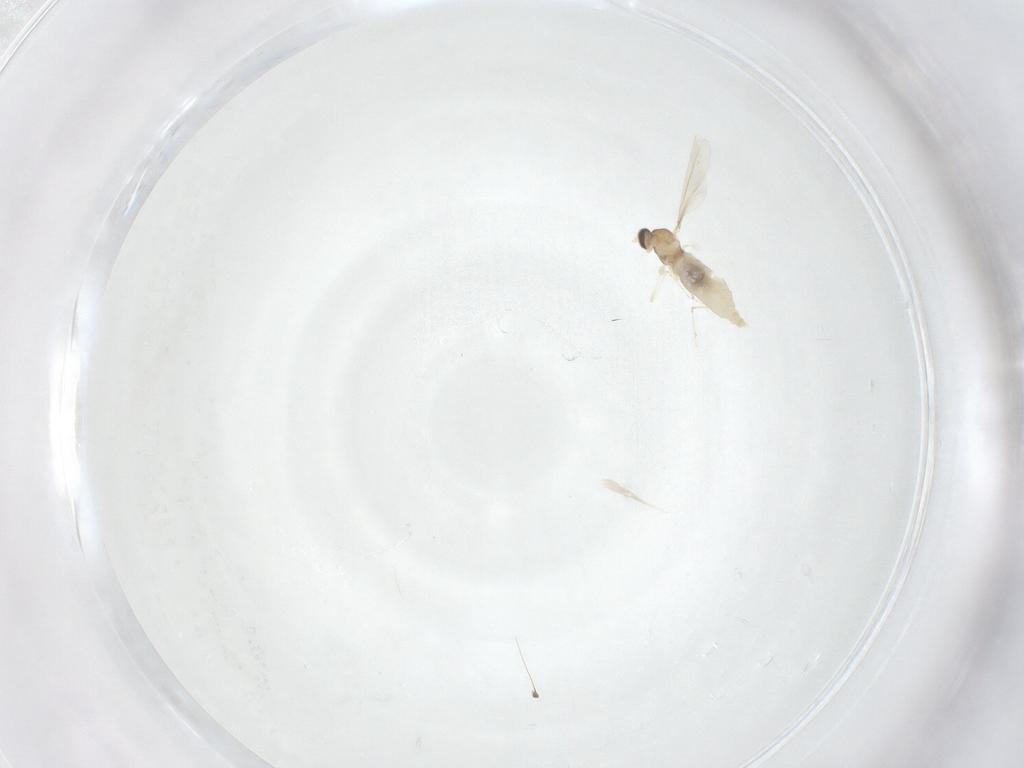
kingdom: Animalia
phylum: Arthropoda
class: Insecta
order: Diptera
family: Cecidomyiidae
